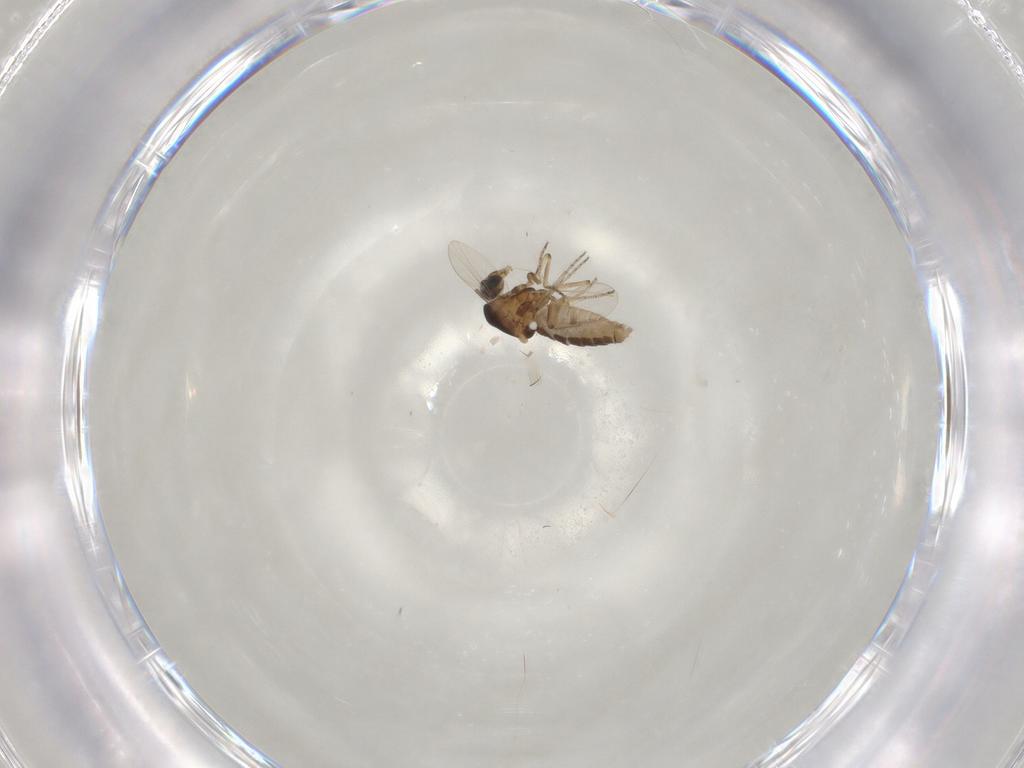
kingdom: Animalia
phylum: Arthropoda
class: Insecta
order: Diptera
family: Ceratopogonidae
